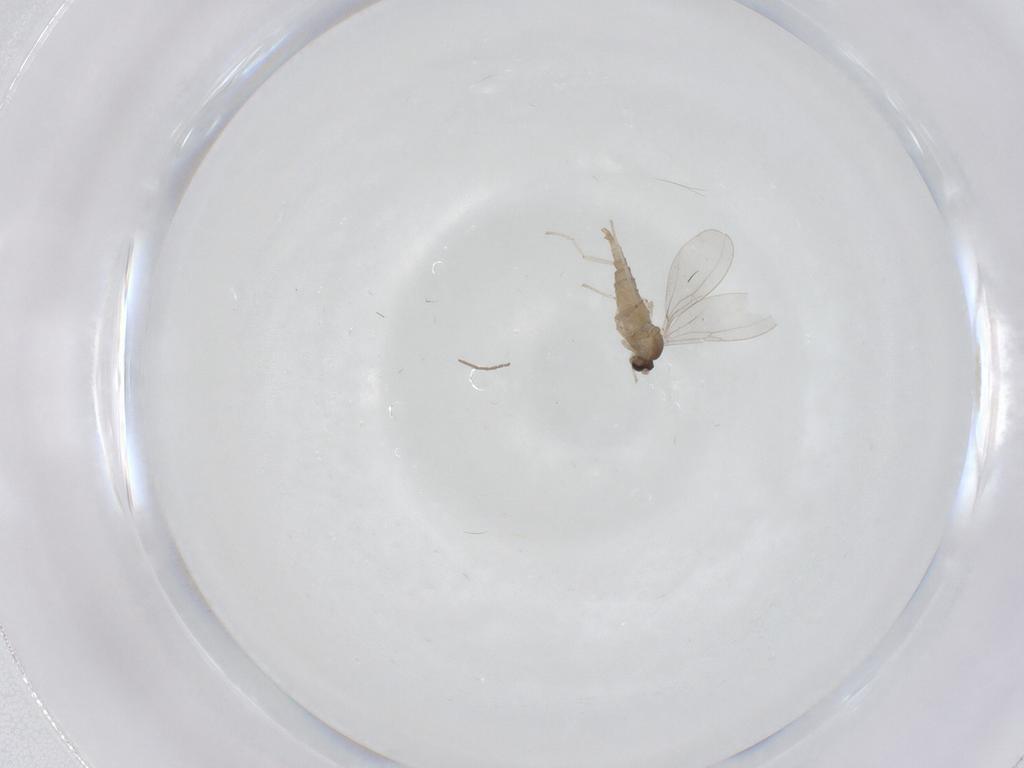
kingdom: Animalia
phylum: Arthropoda
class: Insecta
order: Diptera
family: Cecidomyiidae
